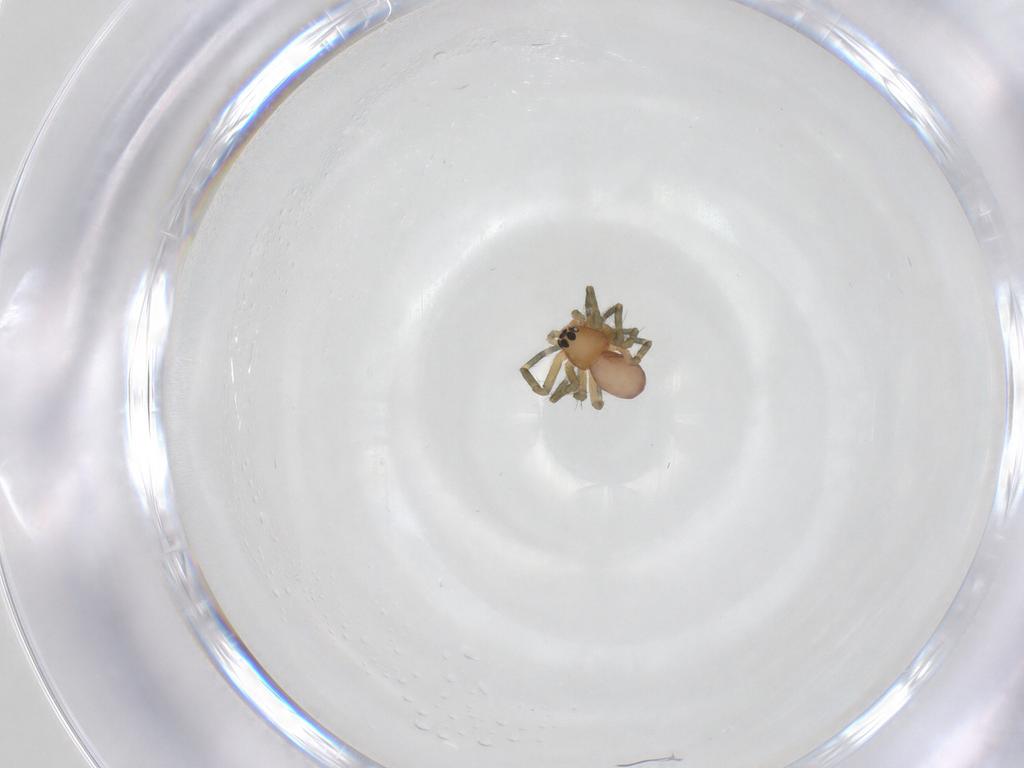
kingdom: Animalia
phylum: Arthropoda
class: Arachnida
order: Araneae
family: Linyphiidae
